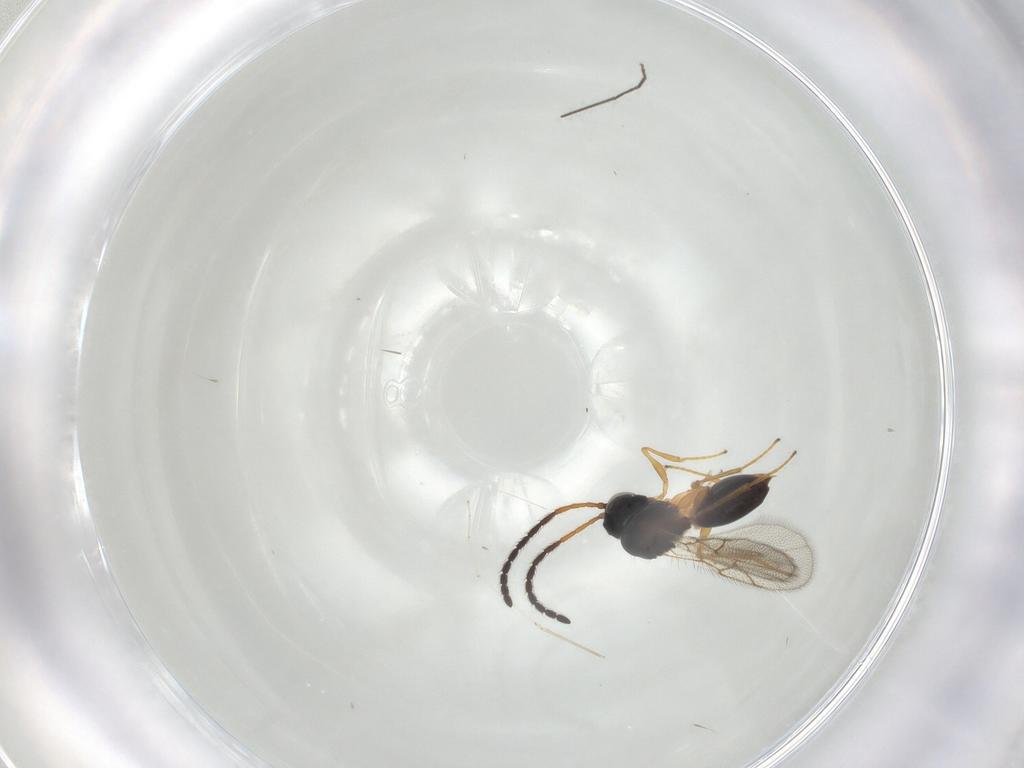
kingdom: Animalia
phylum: Arthropoda
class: Insecta
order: Hymenoptera
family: Figitidae
